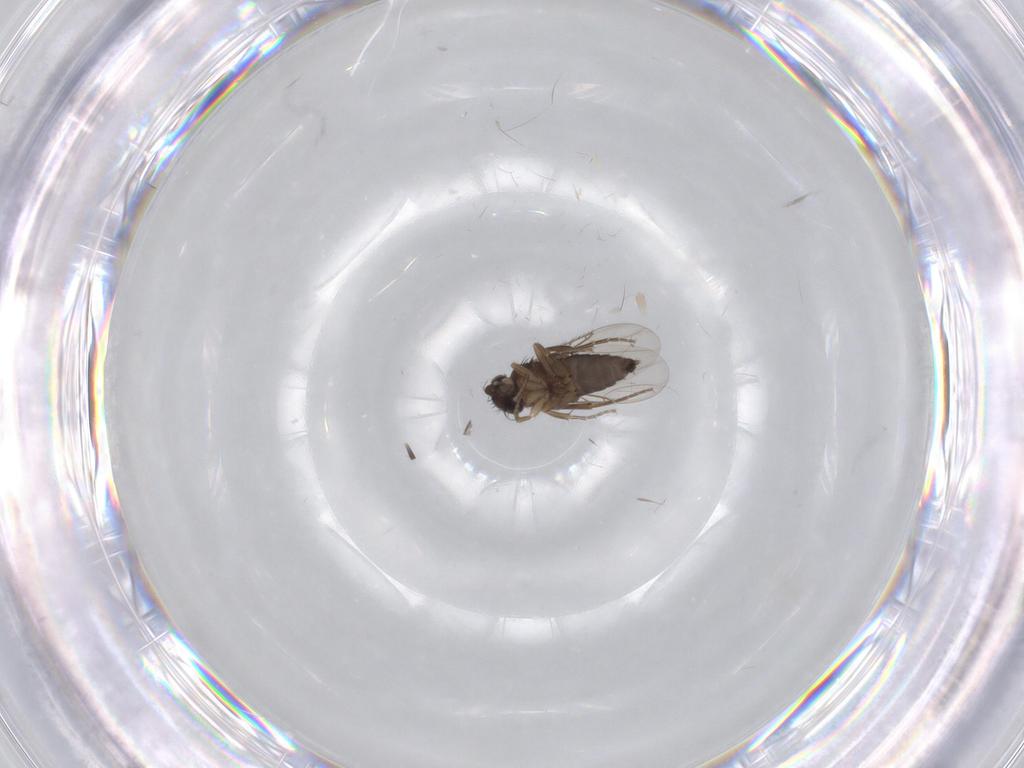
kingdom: Animalia
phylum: Arthropoda
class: Insecta
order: Diptera
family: Phoridae
